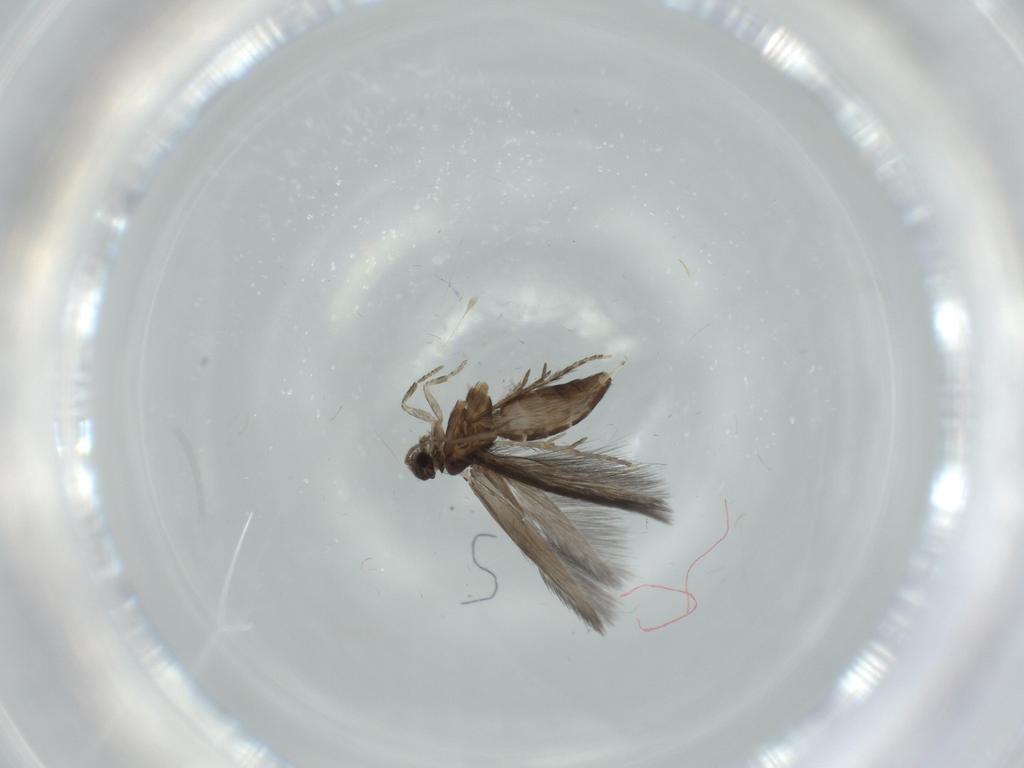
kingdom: Animalia
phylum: Arthropoda
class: Insecta
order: Trichoptera
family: Hydroptilidae
